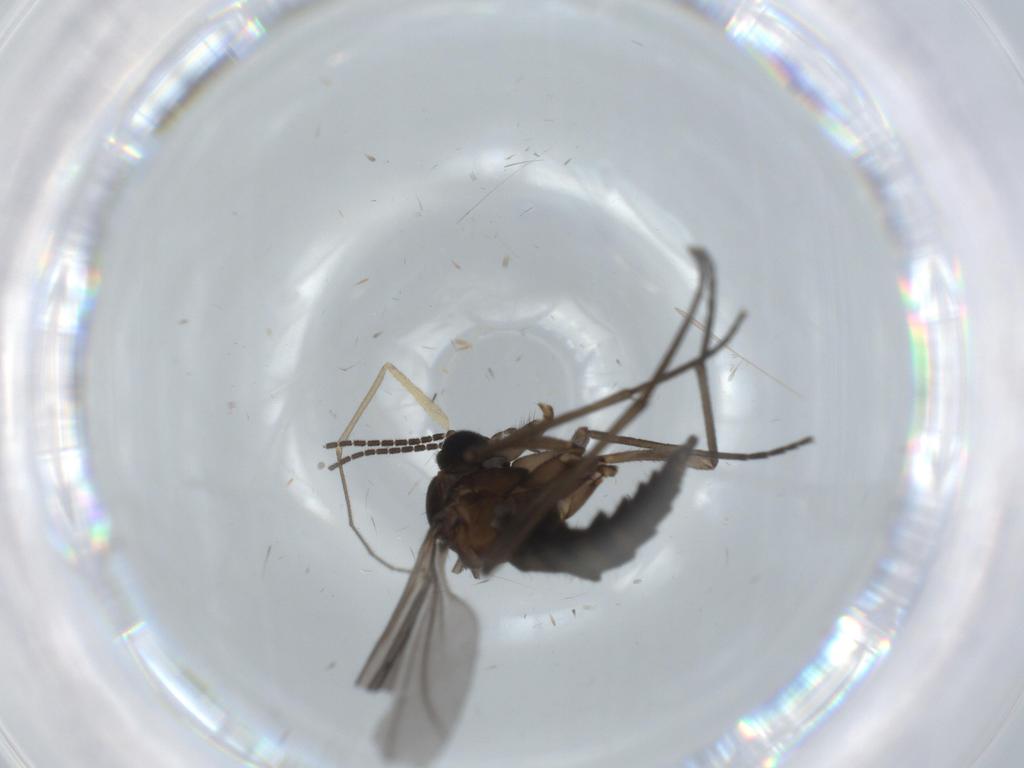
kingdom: Animalia
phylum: Arthropoda
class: Insecta
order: Diptera
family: Sciaridae
